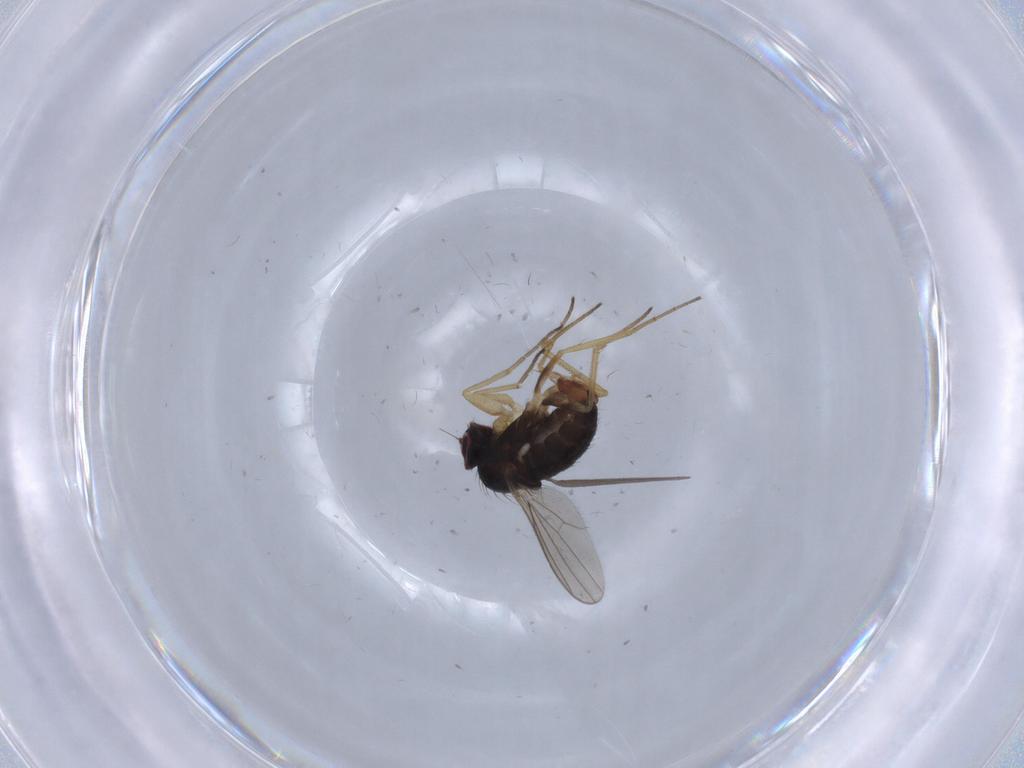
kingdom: Animalia
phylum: Arthropoda
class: Insecta
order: Diptera
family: Dolichopodidae
